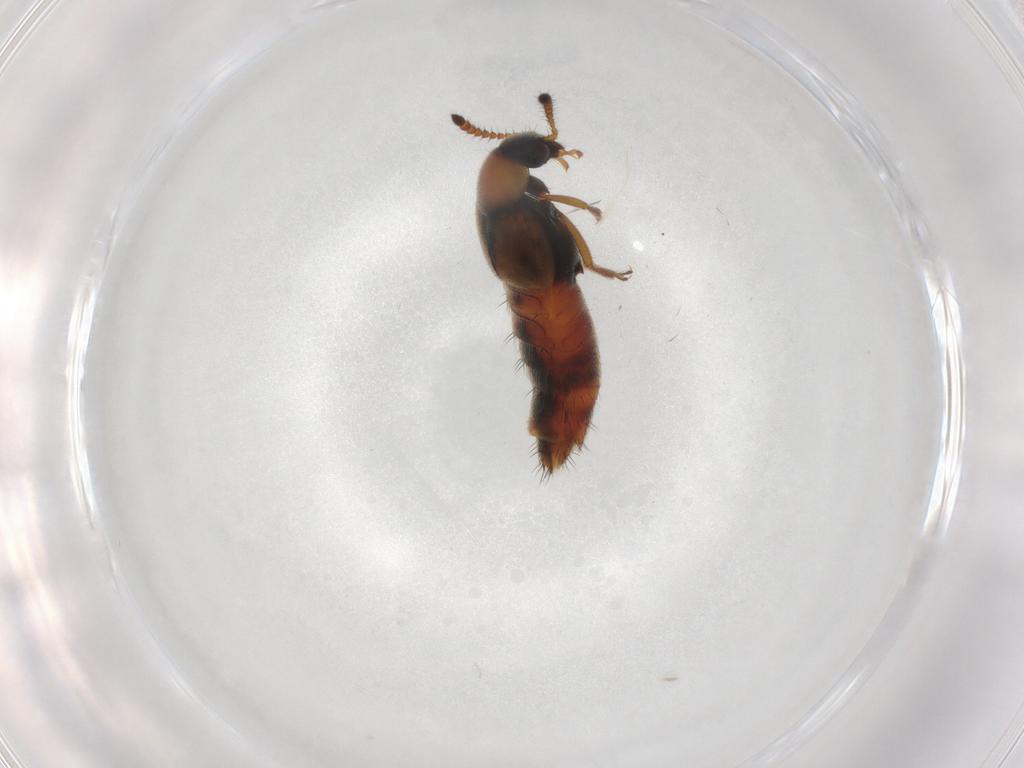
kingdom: Animalia
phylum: Arthropoda
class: Insecta
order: Coleoptera
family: Staphylinidae
